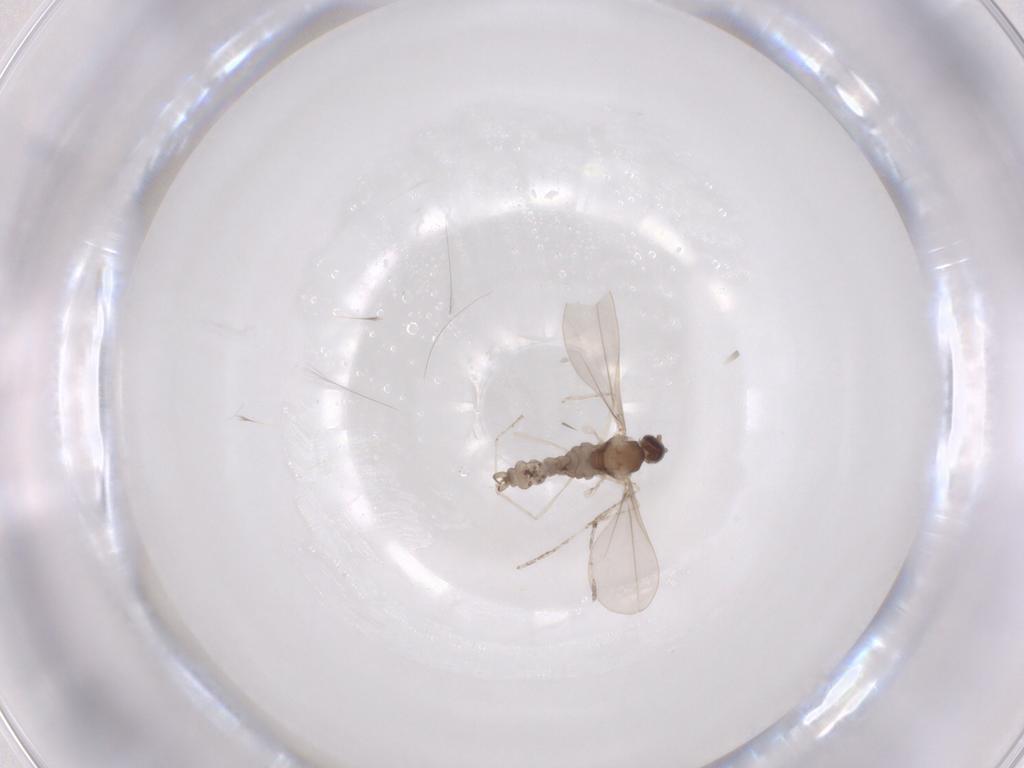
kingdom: Animalia
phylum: Arthropoda
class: Insecta
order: Diptera
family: Cecidomyiidae
